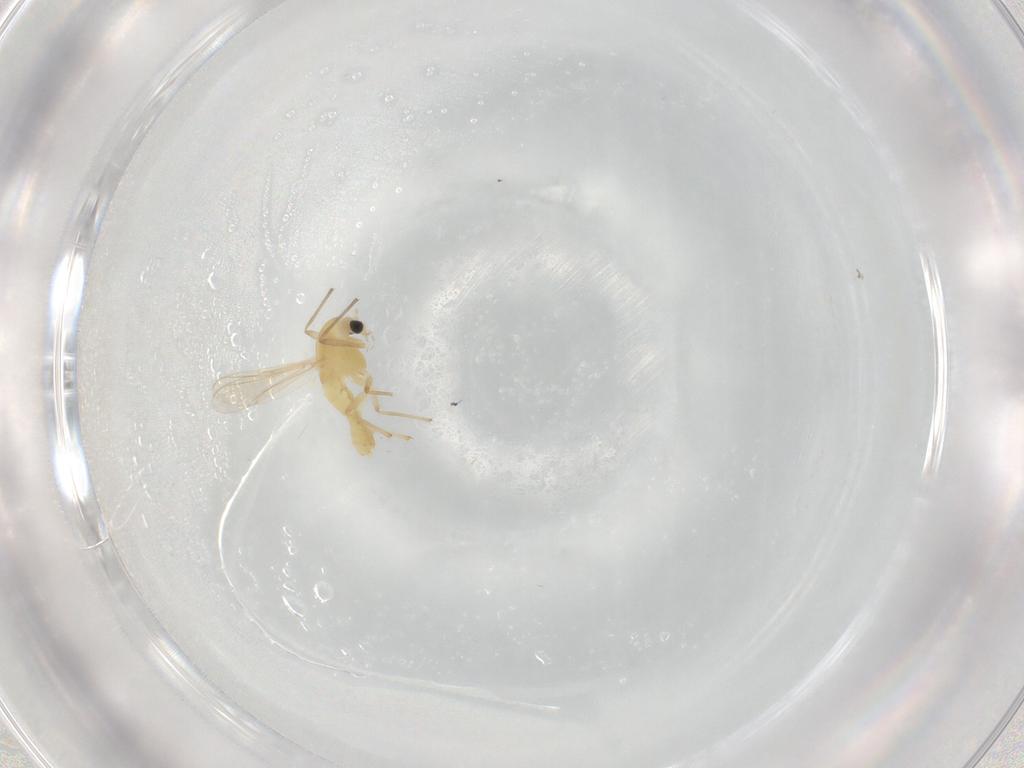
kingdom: Animalia
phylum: Arthropoda
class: Insecta
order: Diptera
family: Chironomidae
